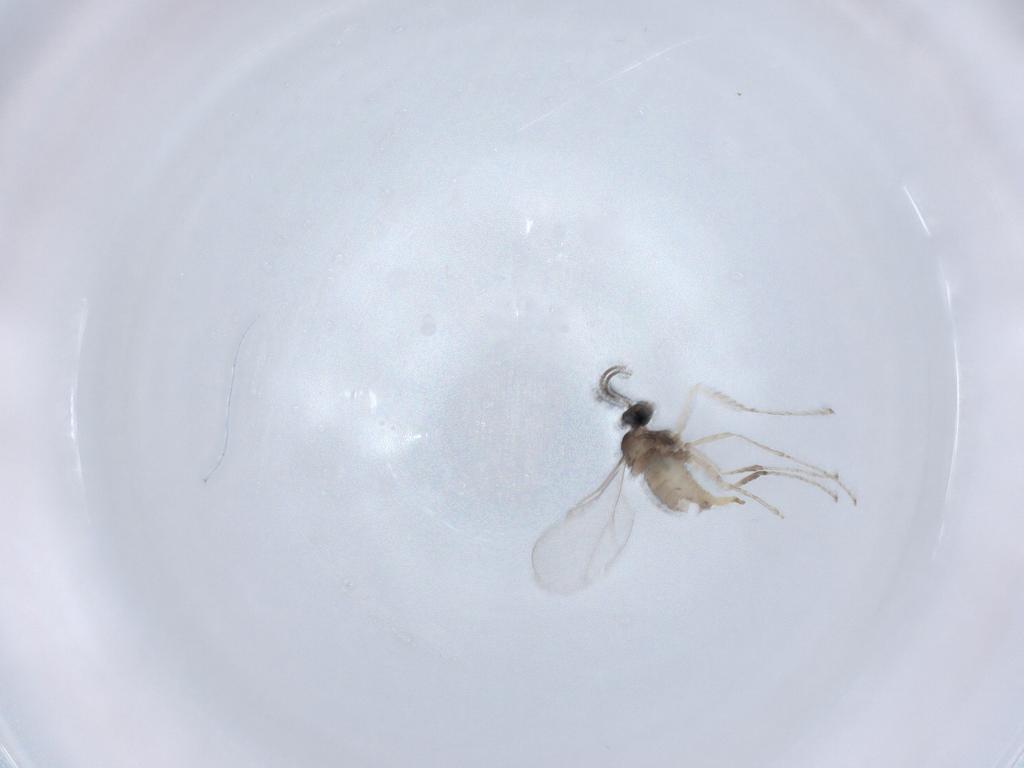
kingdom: Animalia
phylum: Arthropoda
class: Insecta
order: Diptera
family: Cecidomyiidae
